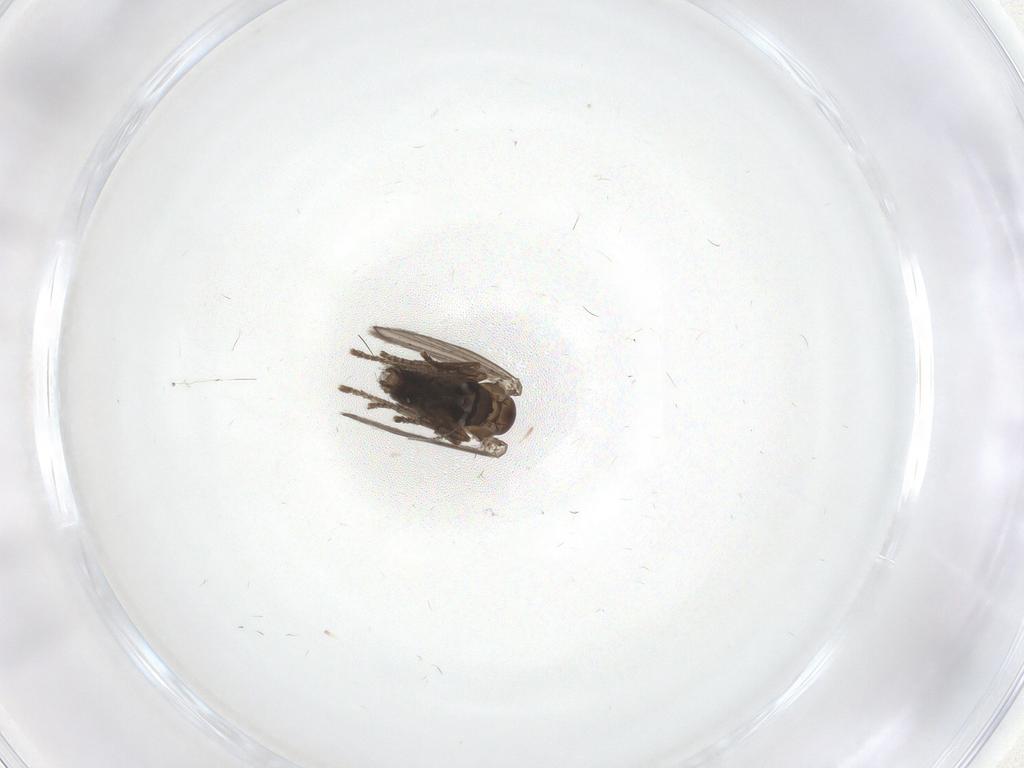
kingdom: Animalia
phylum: Arthropoda
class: Insecta
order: Diptera
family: Psychodidae
